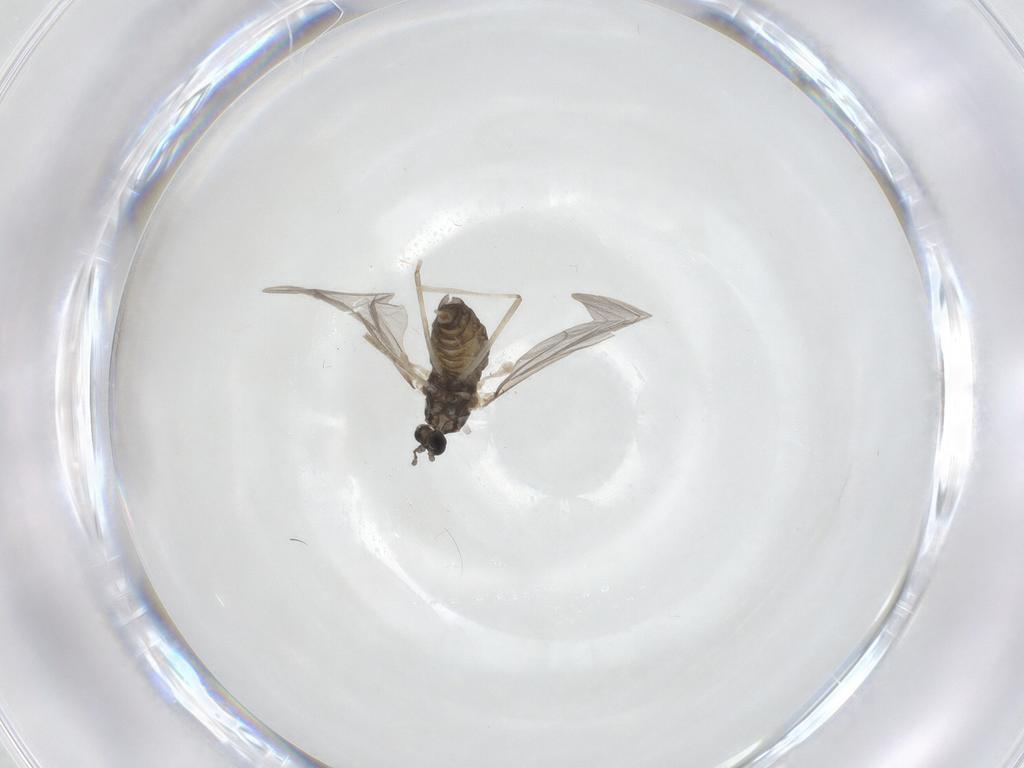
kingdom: Animalia
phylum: Arthropoda
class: Insecta
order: Diptera
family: Cecidomyiidae
